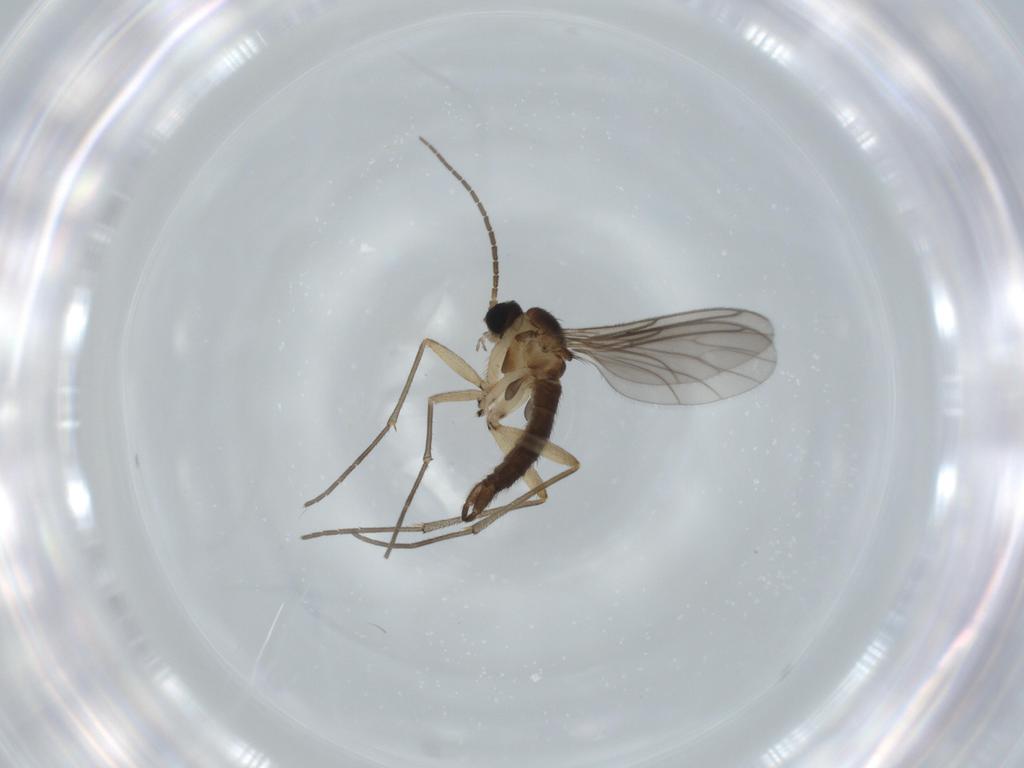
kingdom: Animalia
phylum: Arthropoda
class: Insecta
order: Diptera
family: Sciaridae
